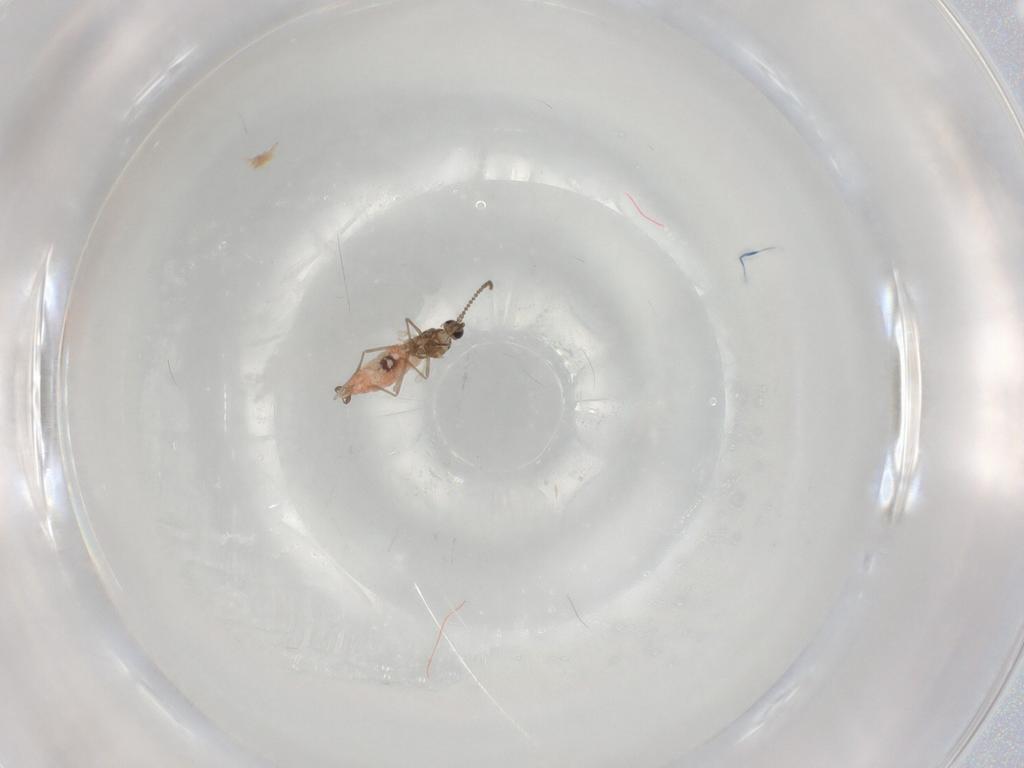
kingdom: Animalia
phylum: Arthropoda
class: Insecta
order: Diptera
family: Cecidomyiidae
